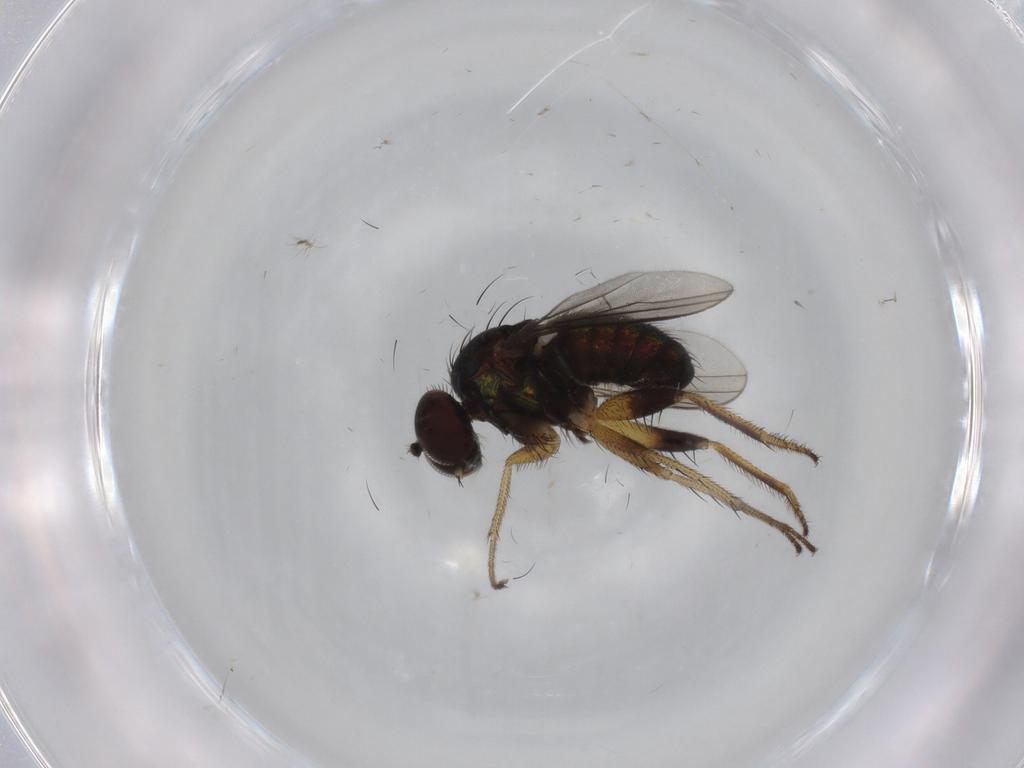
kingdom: Animalia
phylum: Arthropoda
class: Insecta
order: Diptera
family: Dolichopodidae
